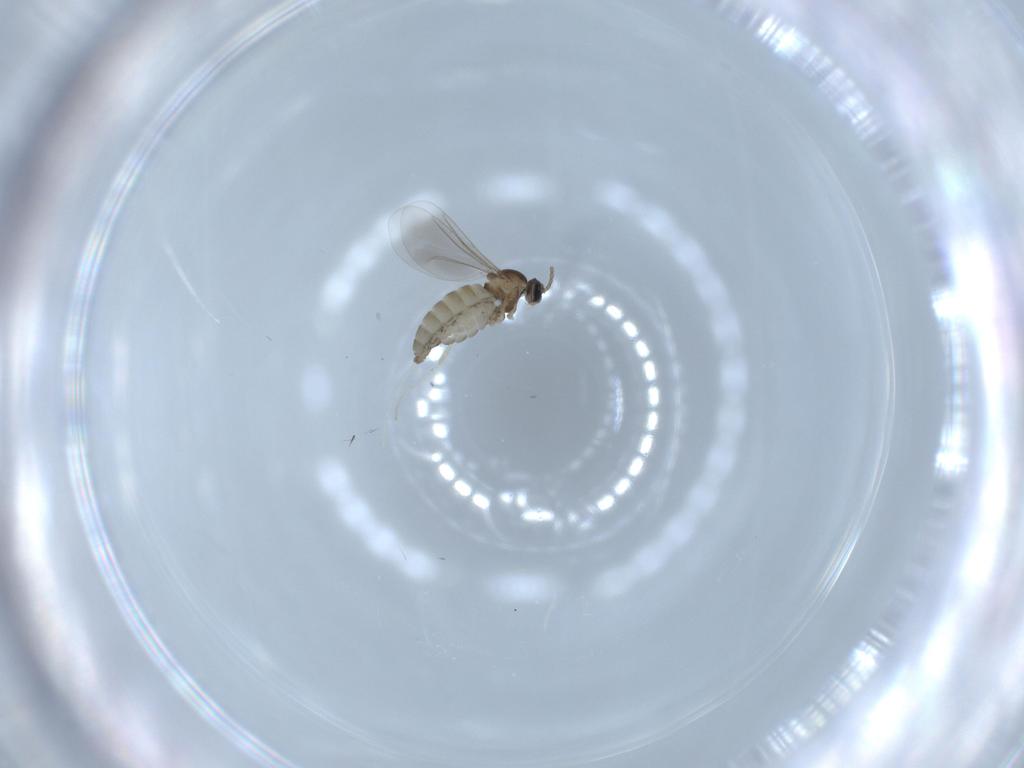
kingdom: Animalia
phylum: Arthropoda
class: Insecta
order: Diptera
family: Cecidomyiidae
